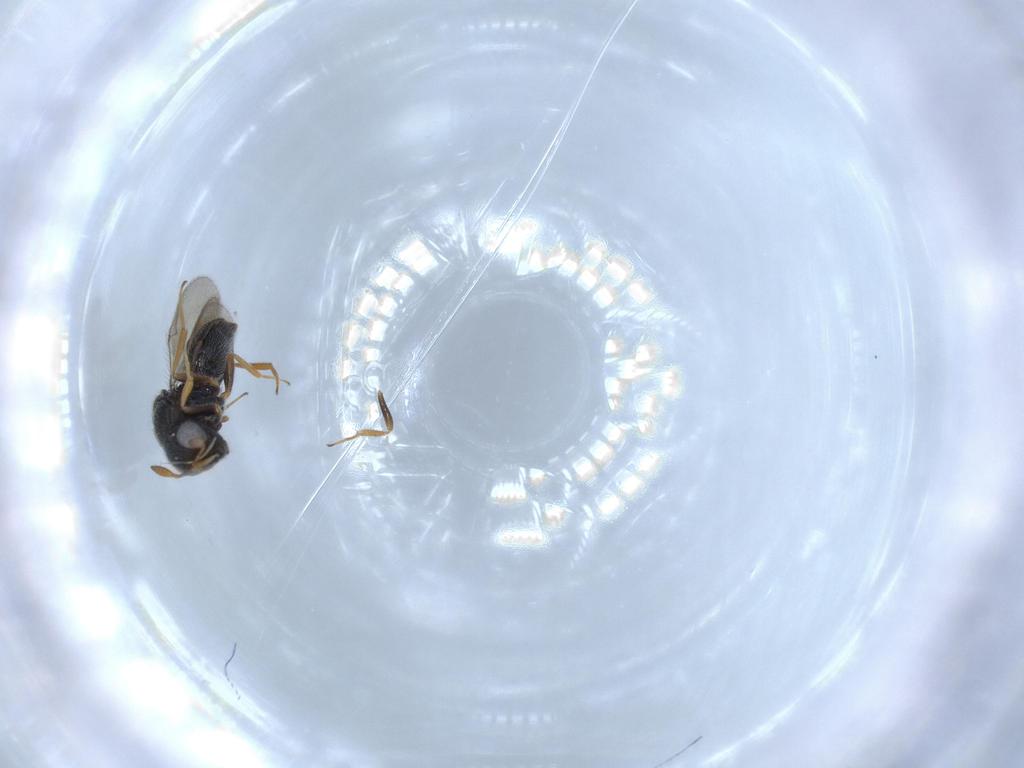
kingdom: Animalia
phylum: Arthropoda
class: Insecta
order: Hymenoptera
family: Scelionidae
